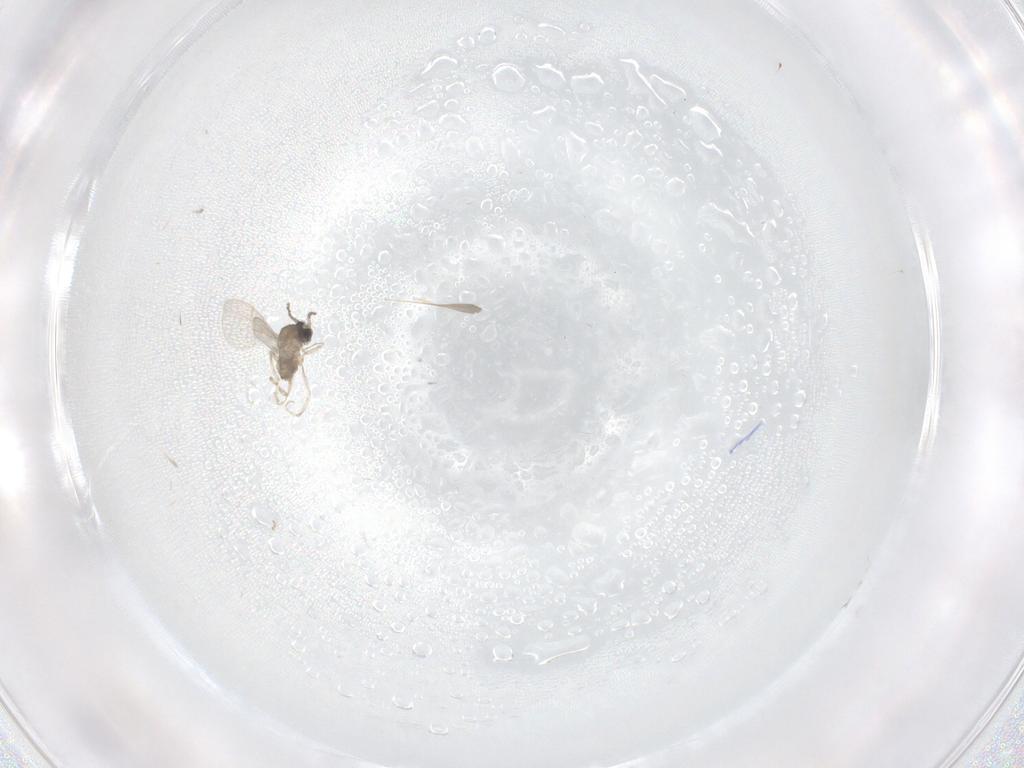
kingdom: Animalia
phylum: Arthropoda
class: Insecta
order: Diptera
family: Cecidomyiidae
